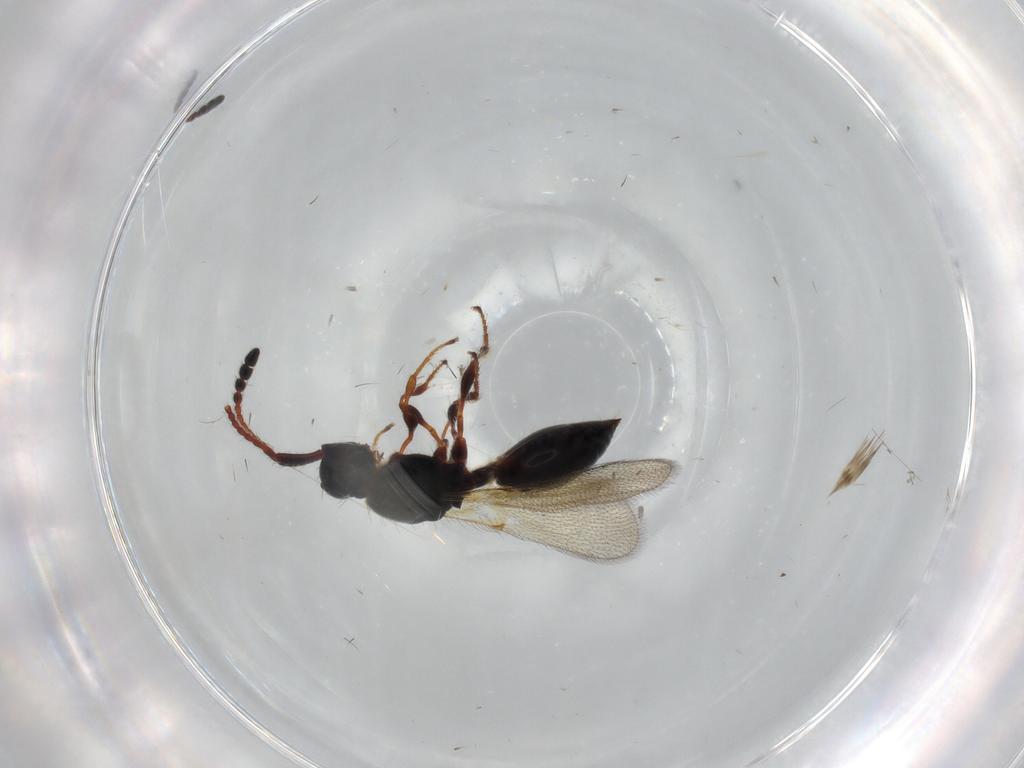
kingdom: Animalia
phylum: Arthropoda
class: Insecta
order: Hymenoptera
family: Diapriidae
